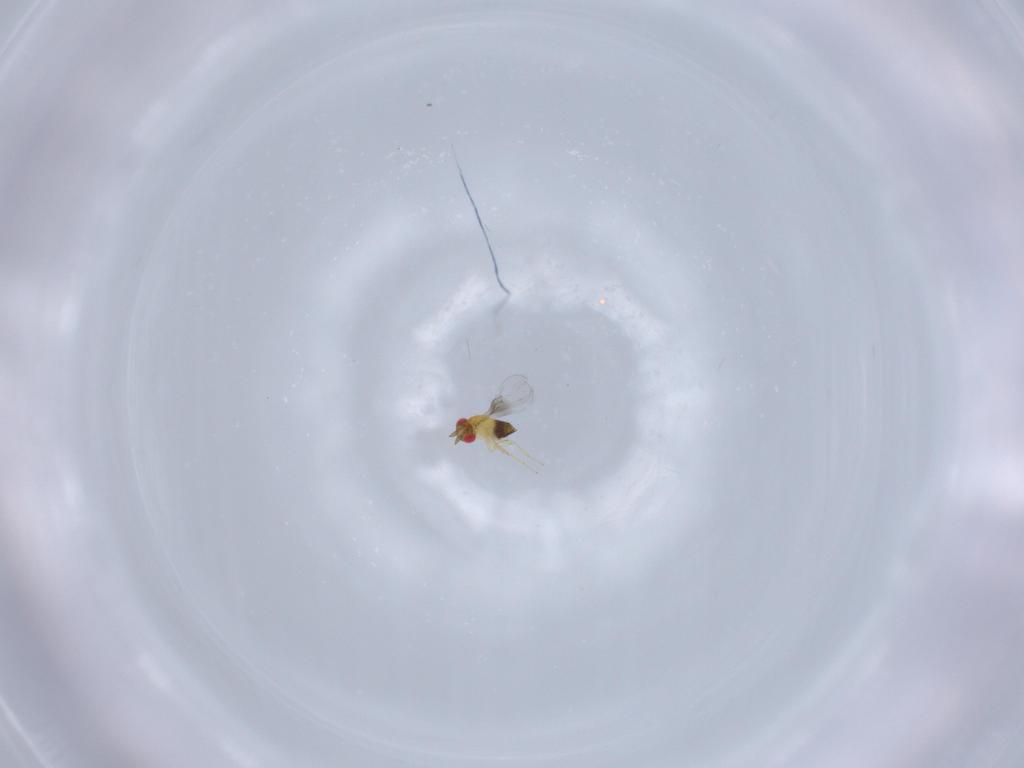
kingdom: Animalia
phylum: Arthropoda
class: Insecta
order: Hymenoptera
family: Trichogrammatidae
